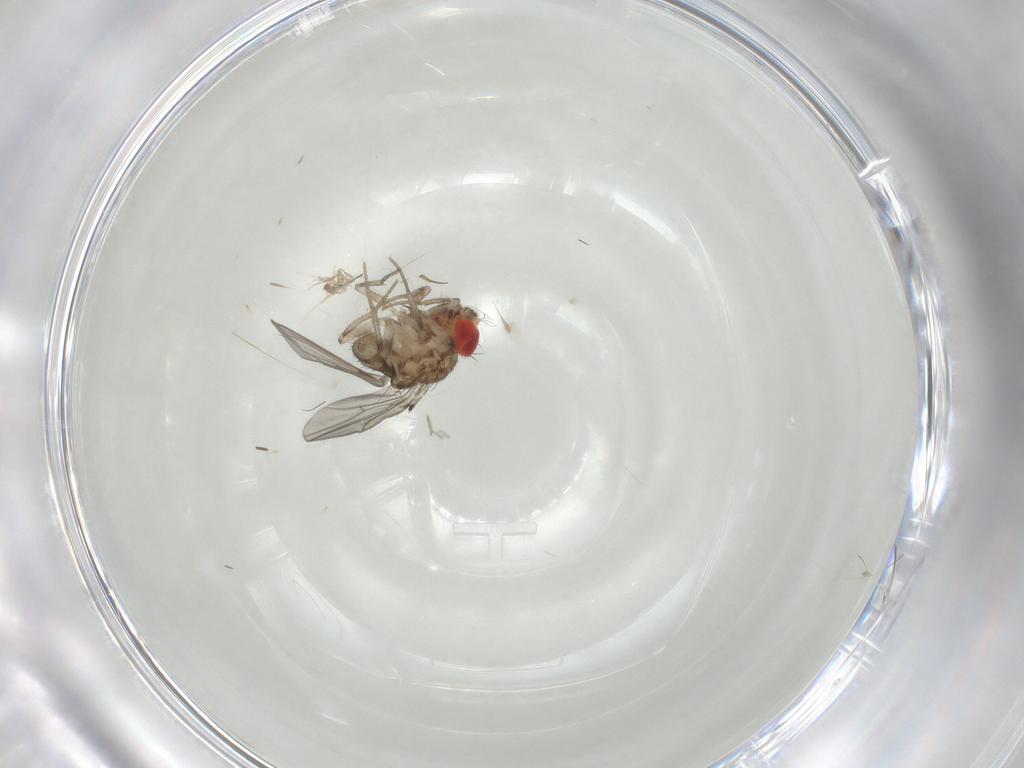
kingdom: Animalia
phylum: Arthropoda
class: Insecta
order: Diptera
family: Drosophilidae
